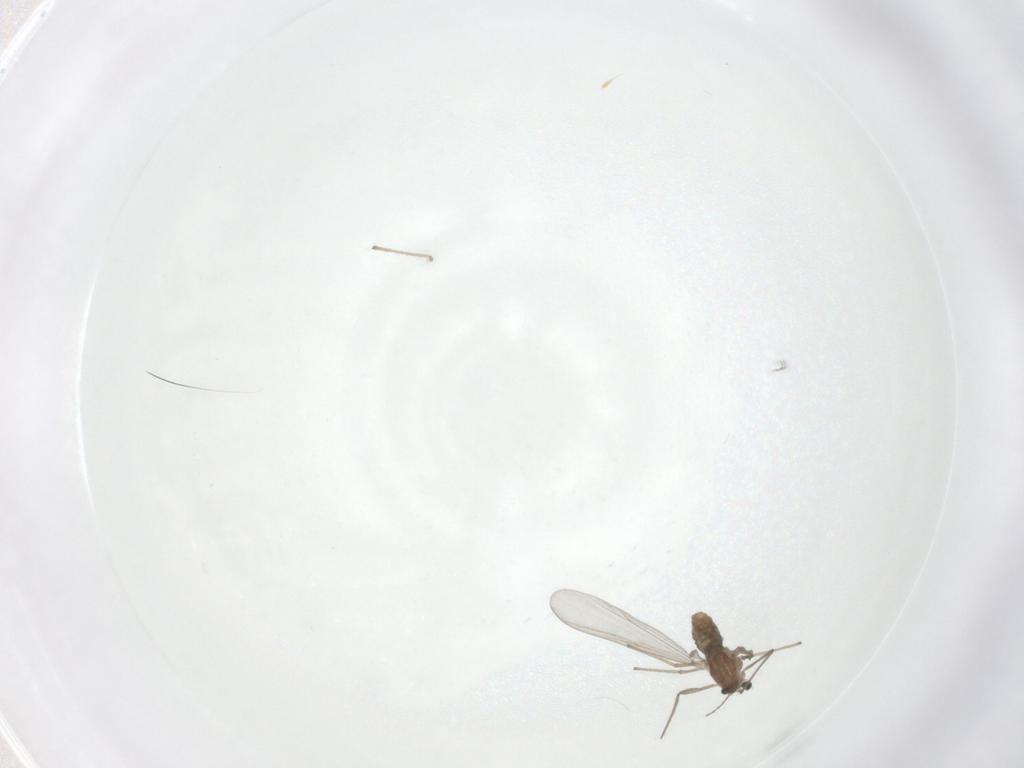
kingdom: Animalia
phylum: Arthropoda
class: Insecta
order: Diptera
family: Chironomidae
